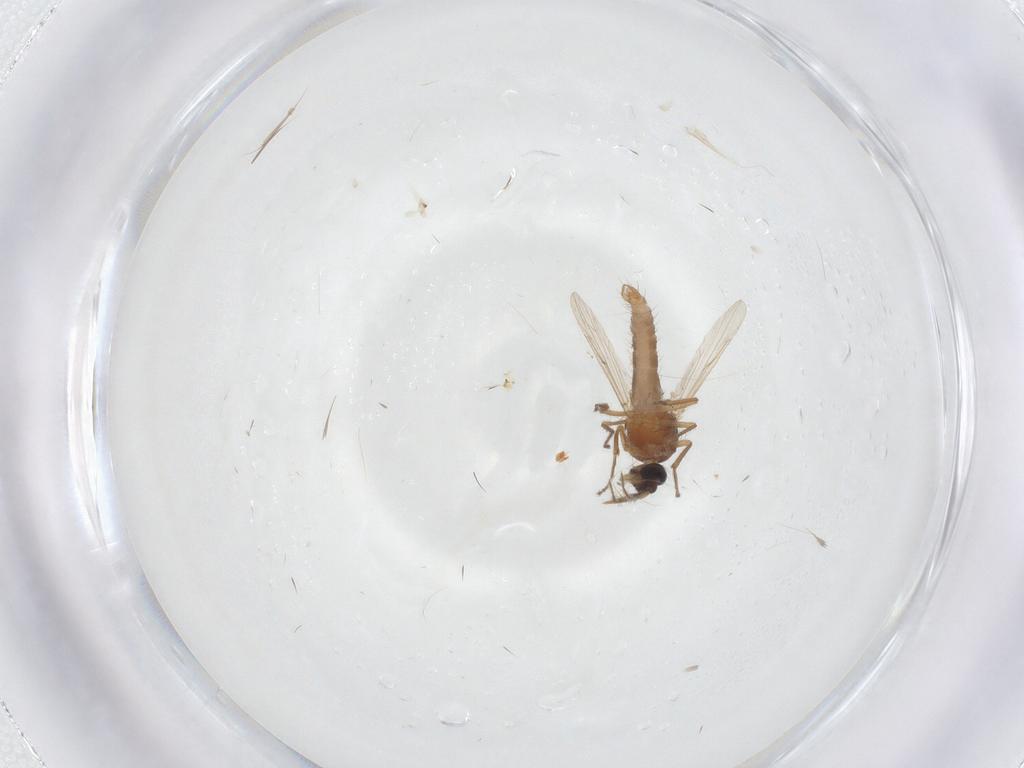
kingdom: Animalia
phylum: Arthropoda
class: Insecta
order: Diptera
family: Ceratopogonidae
